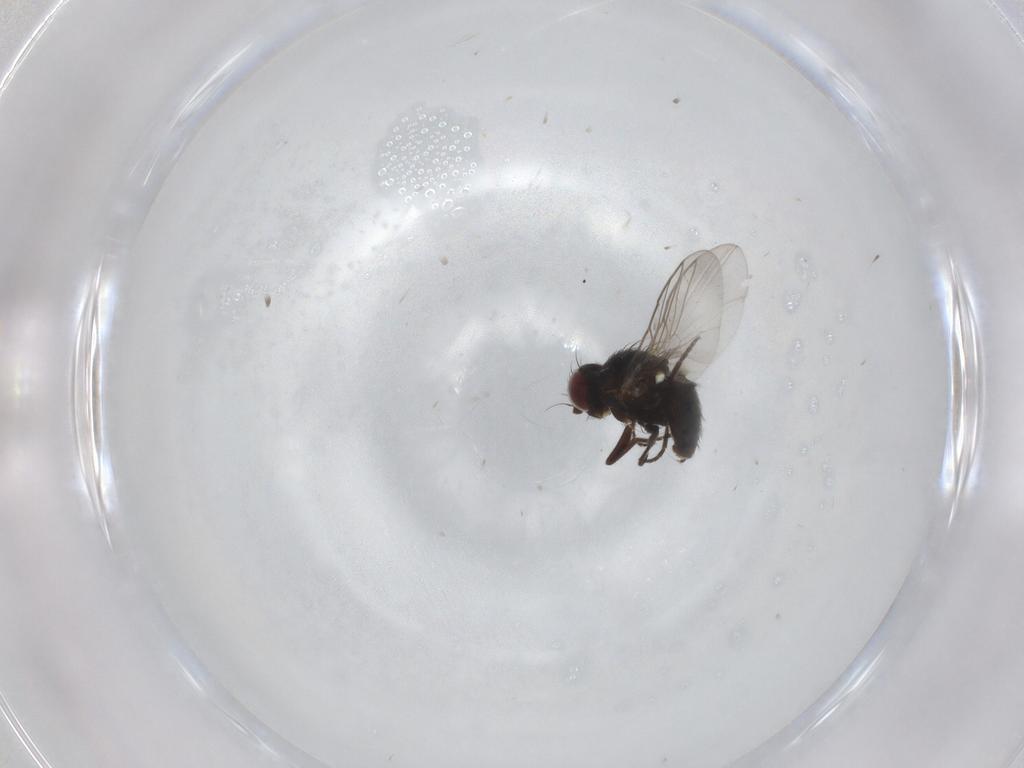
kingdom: Animalia
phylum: Arthropoda
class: Insecta
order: Diptera
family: Ceratopogonidae
